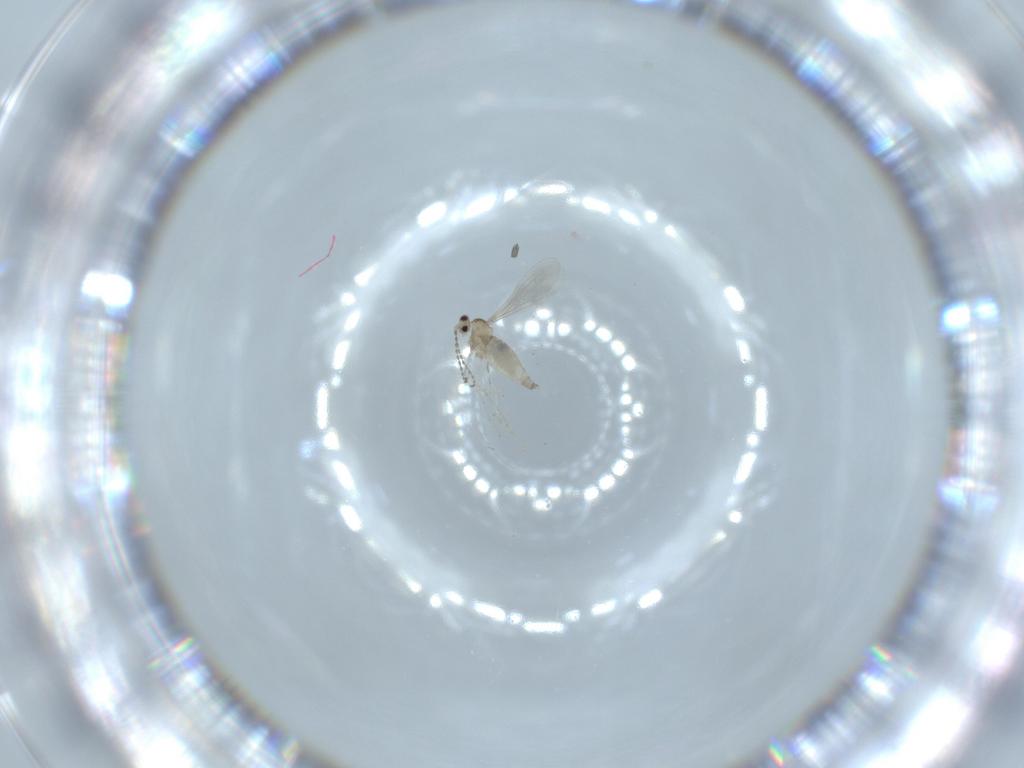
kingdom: Animalia
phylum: Arthropoda
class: Insecta
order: Diptera
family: Cecidomyiidae
